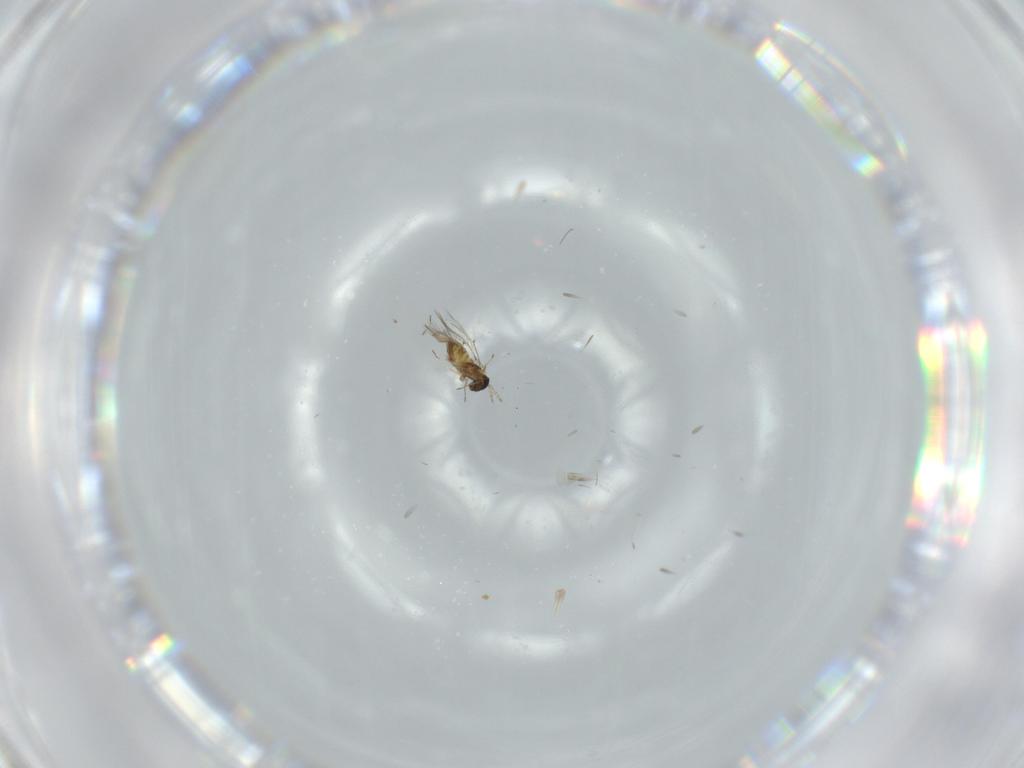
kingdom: Animalia
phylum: Arthropoda
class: Insecta
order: Hymenoptera
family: Trichogrammatidae
